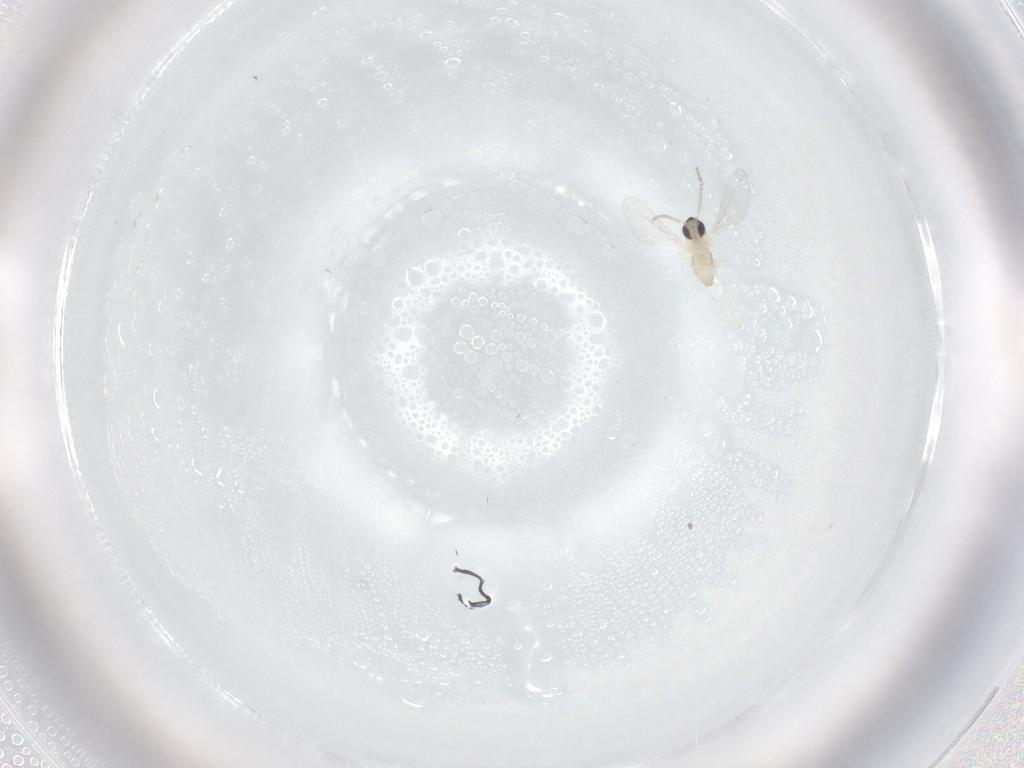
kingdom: Animalia
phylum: Arthropoda
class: Insecta
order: Diptera
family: Cecidomyiidae
